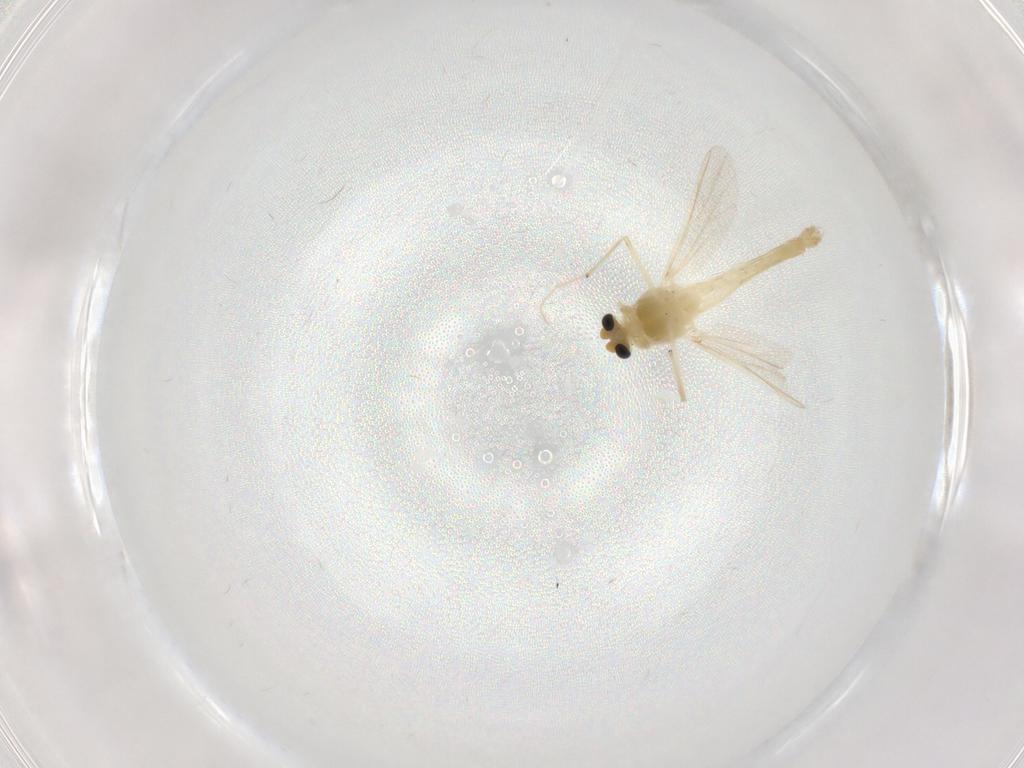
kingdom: Animalia
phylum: Arthropoda
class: Insecta
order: Diptera
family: Chironomidae
